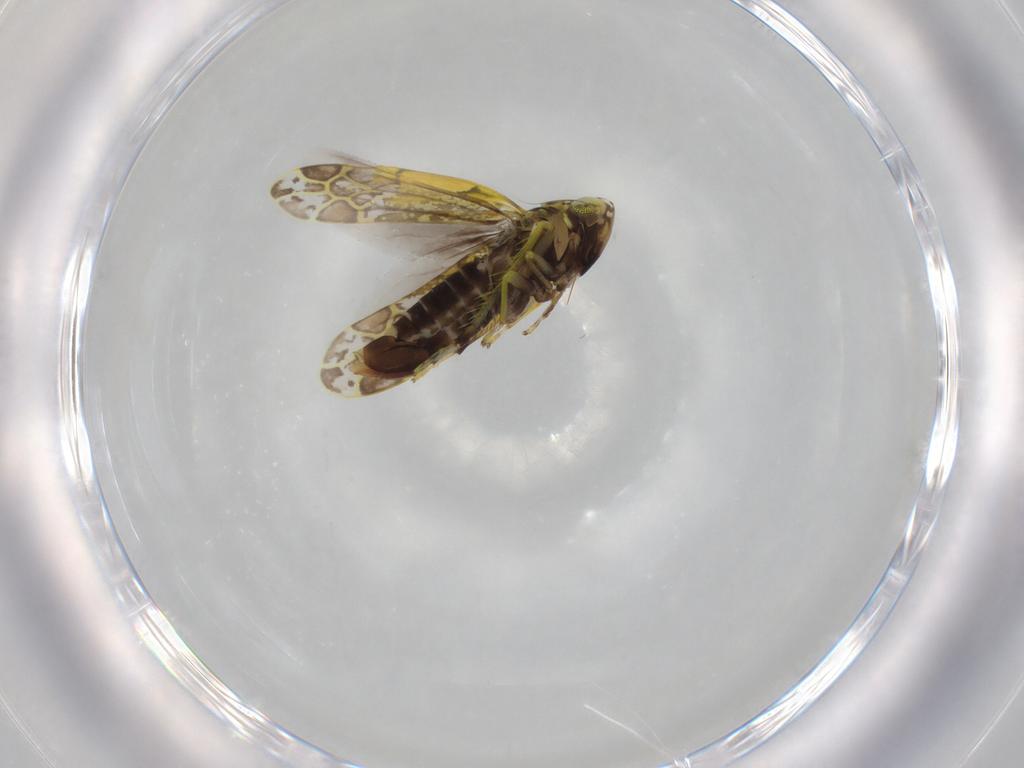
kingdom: Animalia
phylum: Arthropoda
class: Insecta
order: Hemiptera
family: Cicadellidae
